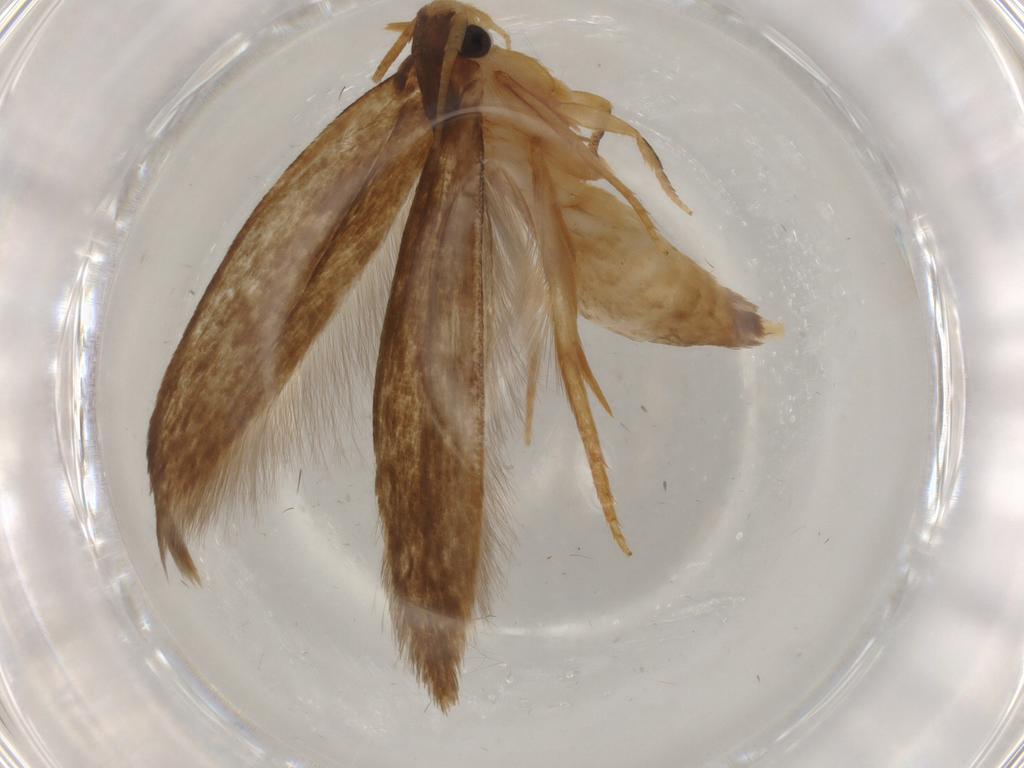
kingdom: Animalia
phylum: Arthropoda
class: Insecta
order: Lepidoptera
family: Tineidae
